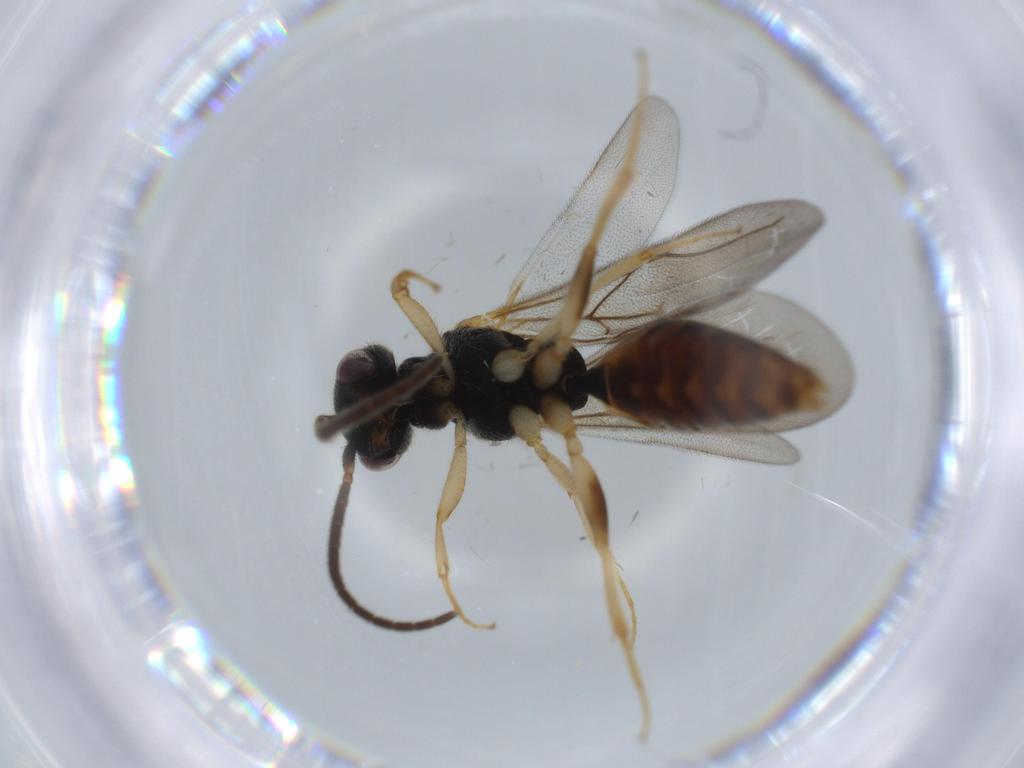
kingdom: Animalia
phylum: Arthropoda
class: Insecta
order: Hymenoptera
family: Bethylidae
